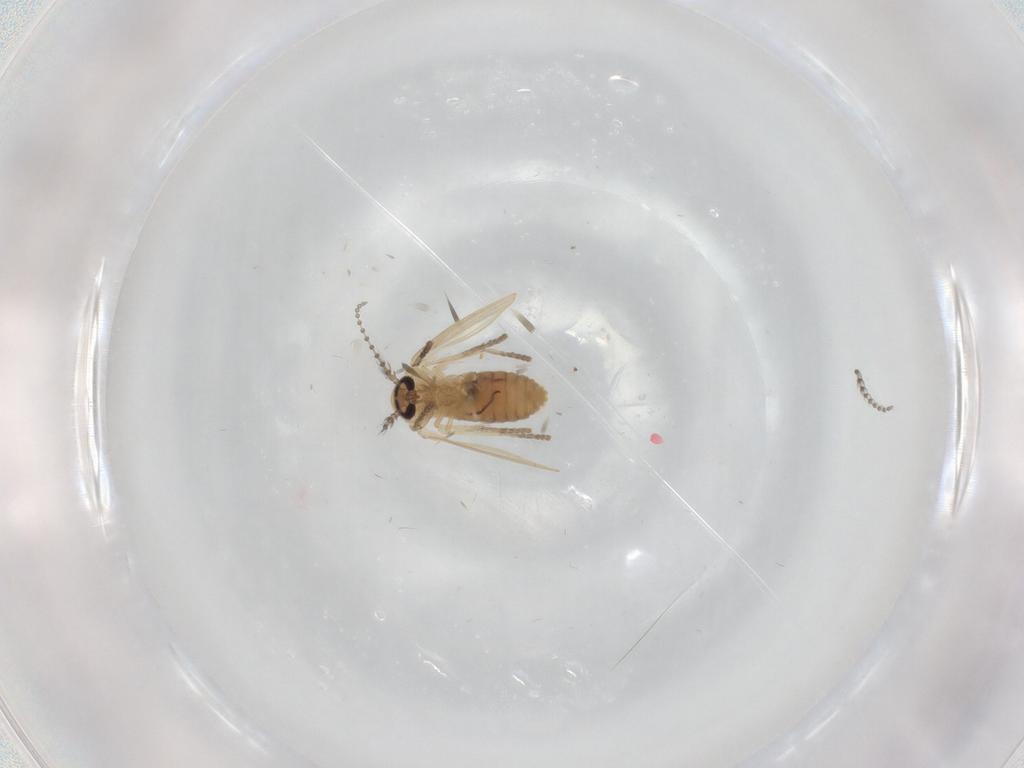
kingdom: Animalia
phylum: Arthropoda
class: Insecta
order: Diptera
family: Psychodidae
